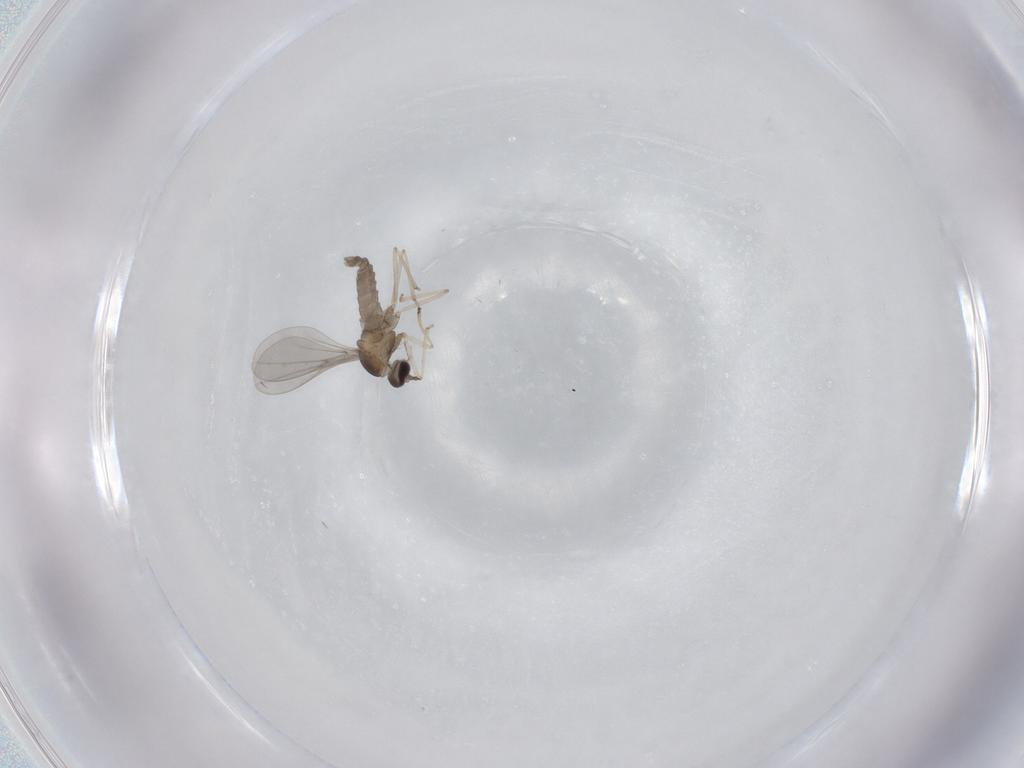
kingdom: Animalia
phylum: Arthropoda
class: Insecta
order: Diptera
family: Cecidomyiidae
